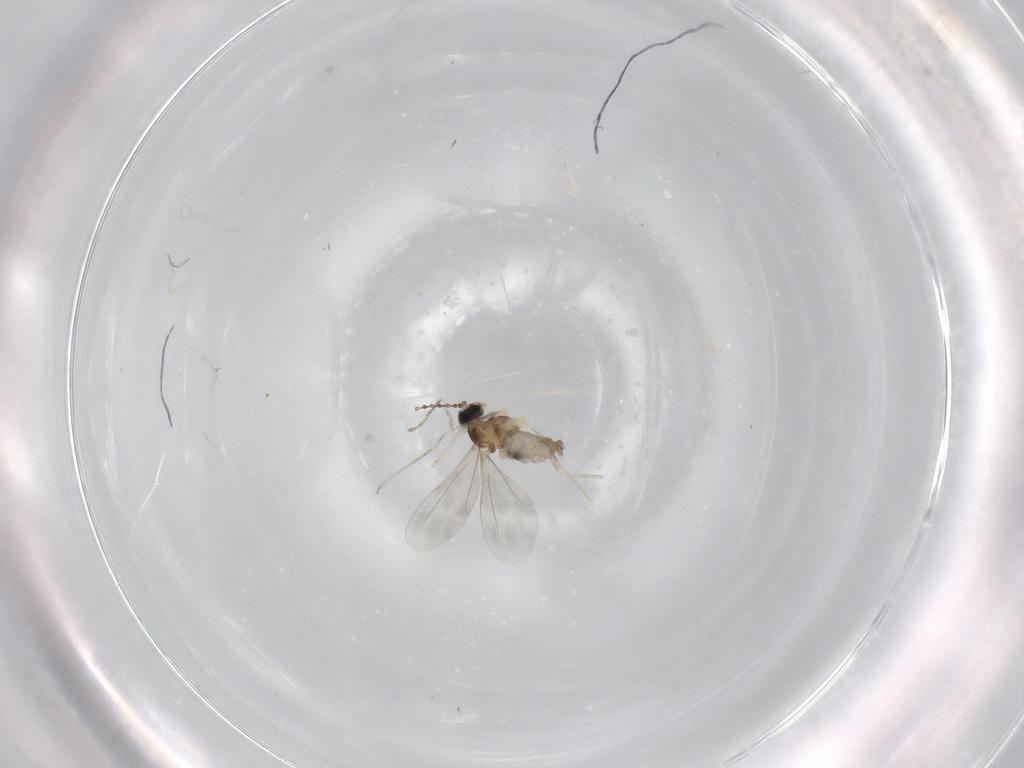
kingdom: Animalia
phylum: Arthropoda
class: Insecta
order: Diptera
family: Cecidomyiidae
